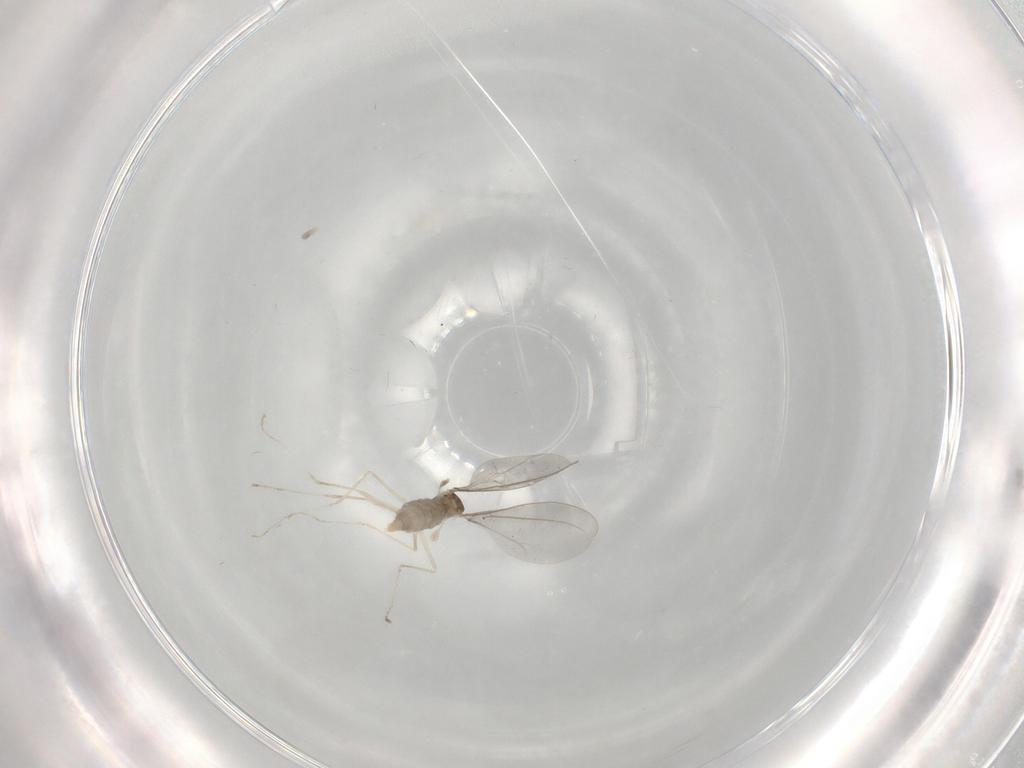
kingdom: Animalia
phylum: Arthropoda
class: Insecta
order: Diptera
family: Cecidomyiidae
